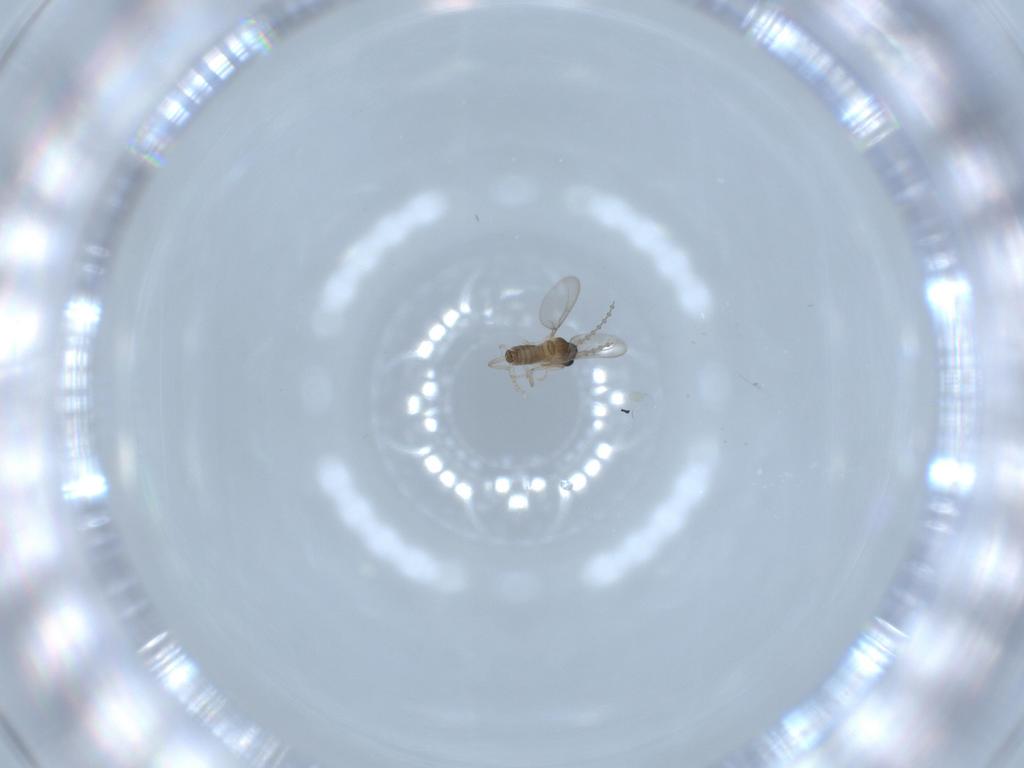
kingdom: Animalia
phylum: Arthropoda
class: Insecta
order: Diptera
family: Cecidomyiidae
